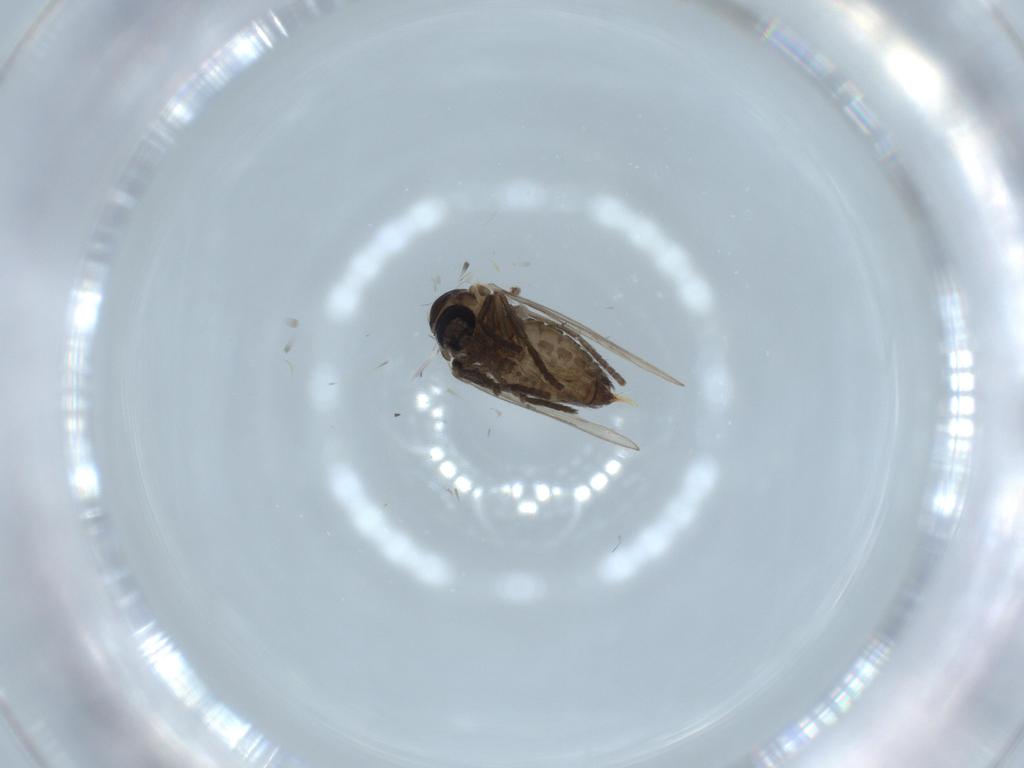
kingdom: Animalia
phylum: Arthropoda
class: Insecta
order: Diptera
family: Psychodidae
